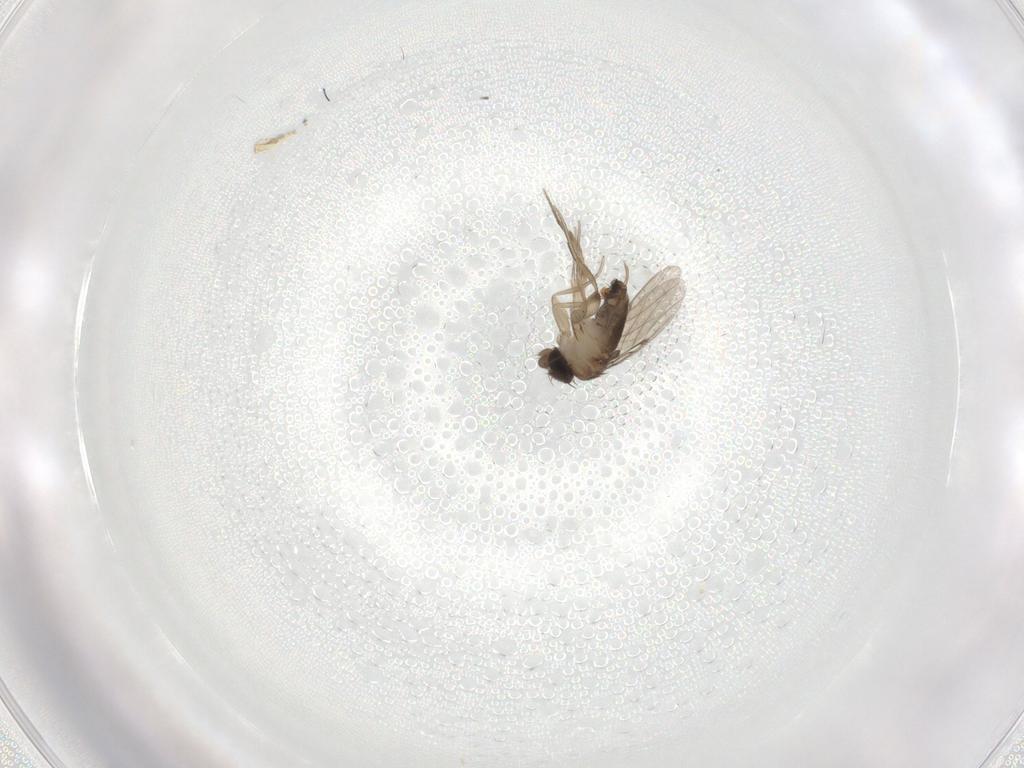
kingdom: Animalia
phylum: Arthropoda
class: Insecta
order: Diptera
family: Phoridae
